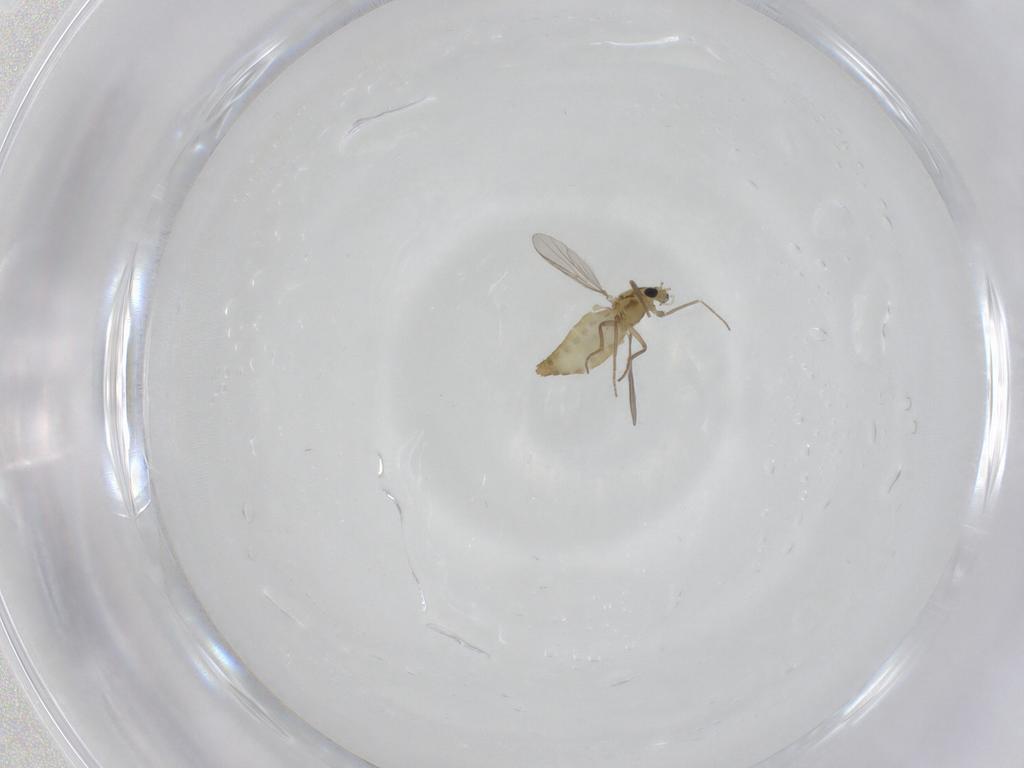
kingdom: Animalia
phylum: Arthropoda
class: Insecta
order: Diptera
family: Chironomidae
